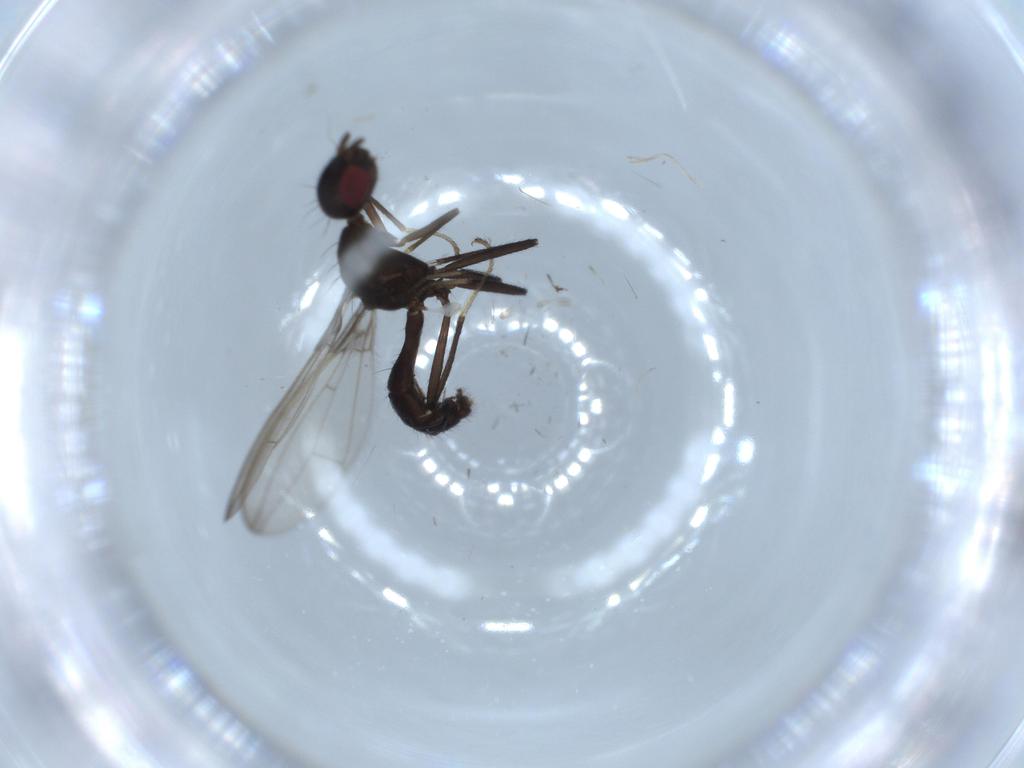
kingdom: Animalia
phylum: Arthropoda
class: Insecta
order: Diptera
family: Richardiidae
